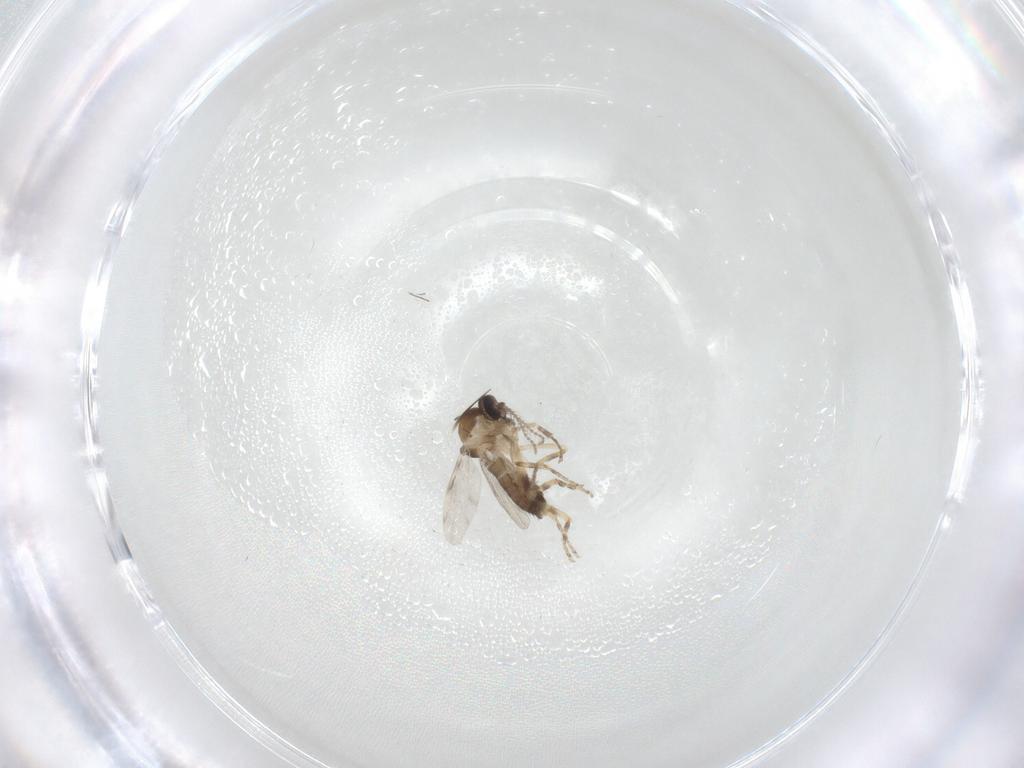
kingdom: Animalia
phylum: Arthropoda
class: Insecta
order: Diptera
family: Ceratopogonidae
